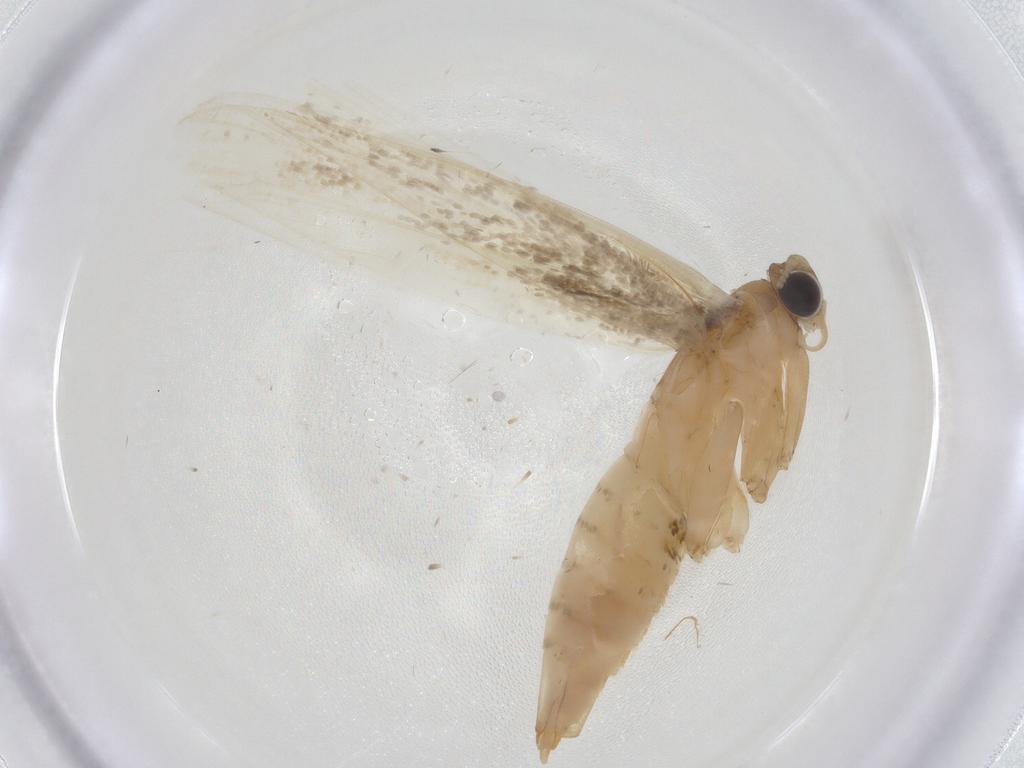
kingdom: Animalia
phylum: Arthropoda
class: Insecta
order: Lepidoptera
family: Tineidae
